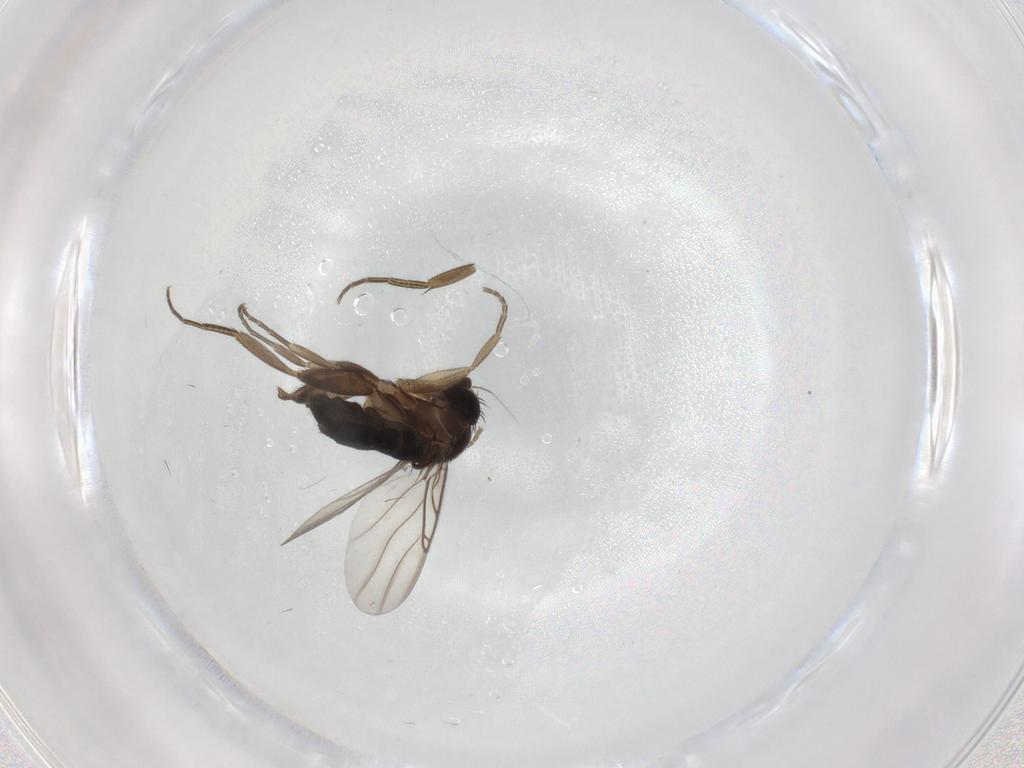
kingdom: Animalia
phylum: Arthropoda
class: Insecta
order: Diptera
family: Phoridae
